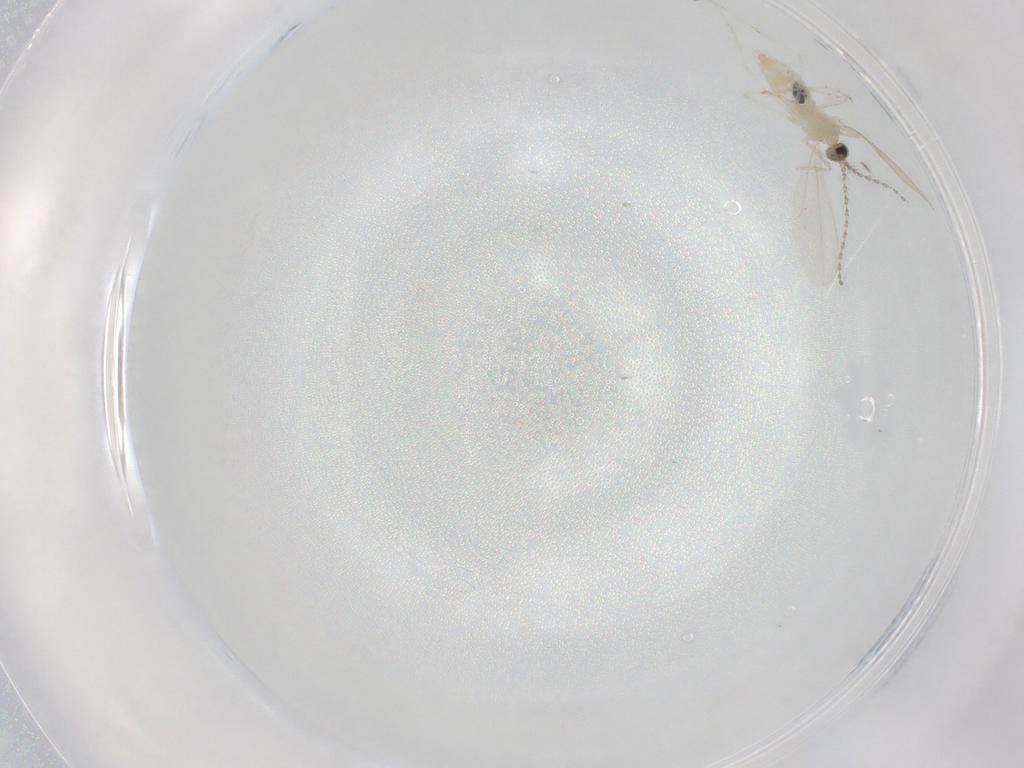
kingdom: Animalia
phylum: Arthropoda
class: Insecta
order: Diptera
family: Cecidomyiidae
